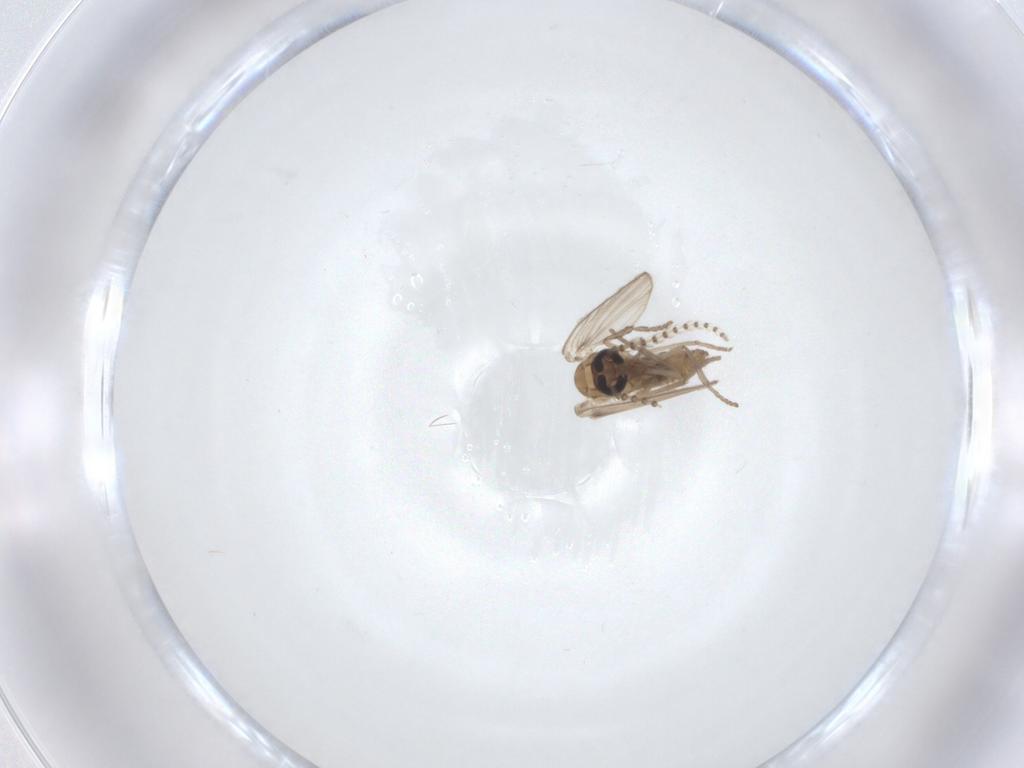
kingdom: Animalia
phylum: Arthropoda
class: Insecta
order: Diptera
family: Psychodidae
